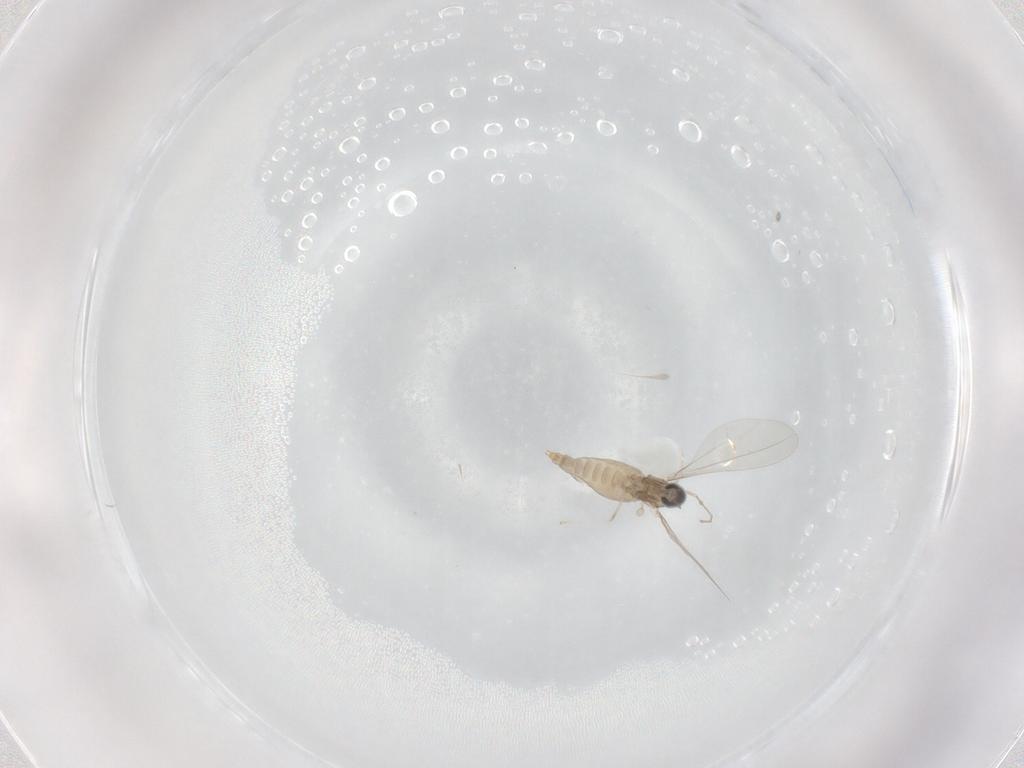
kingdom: Animalia
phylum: Arthropoda
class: Insecta
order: Diptera
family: Cecidomyiidae
